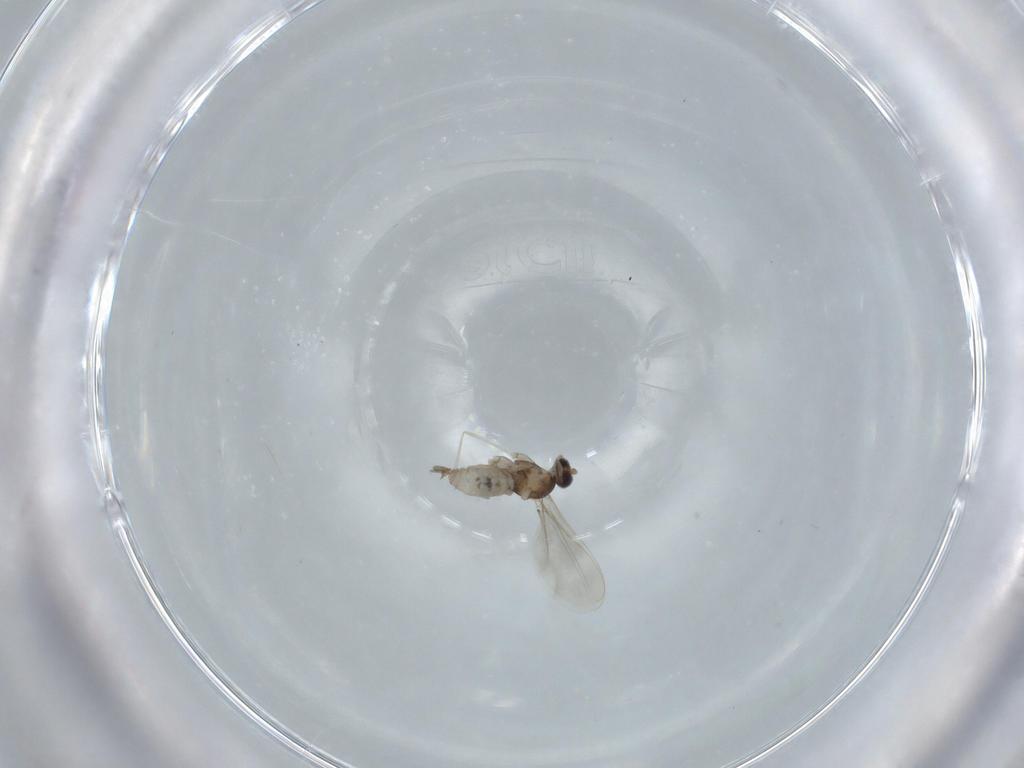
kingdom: Animalia
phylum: Arthropoda
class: Insecta
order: Diptera
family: Cecidomyiidae
